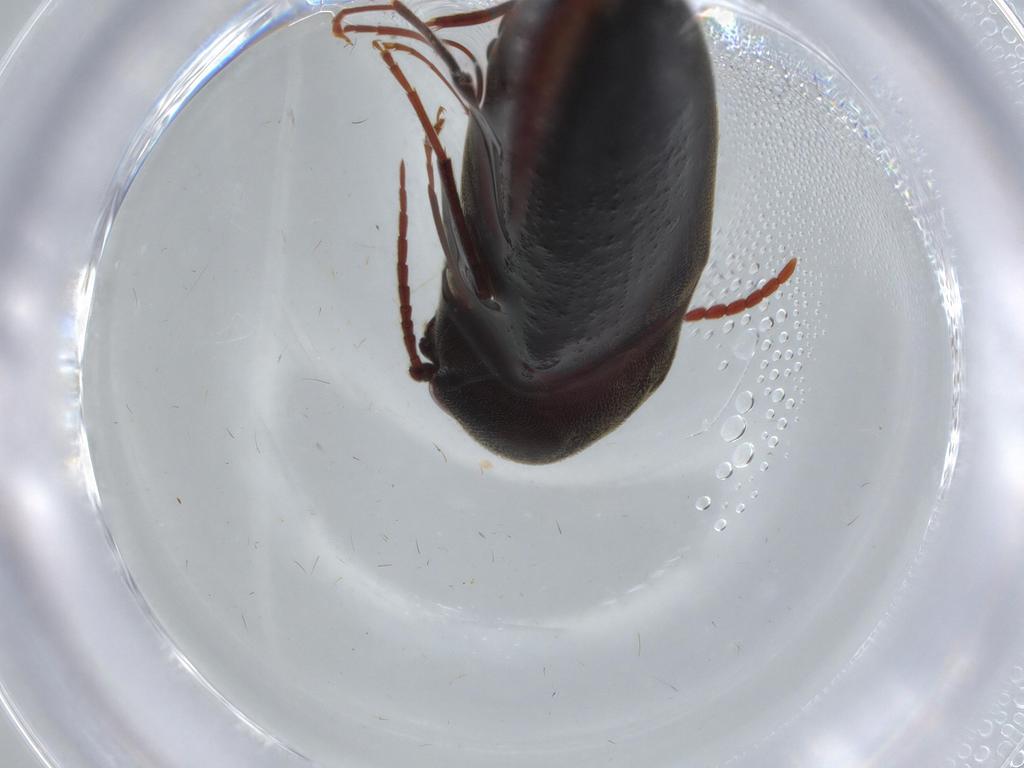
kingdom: Animalia
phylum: Arthropoda
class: Insecta
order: Coleoptera
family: Eucnemidae
